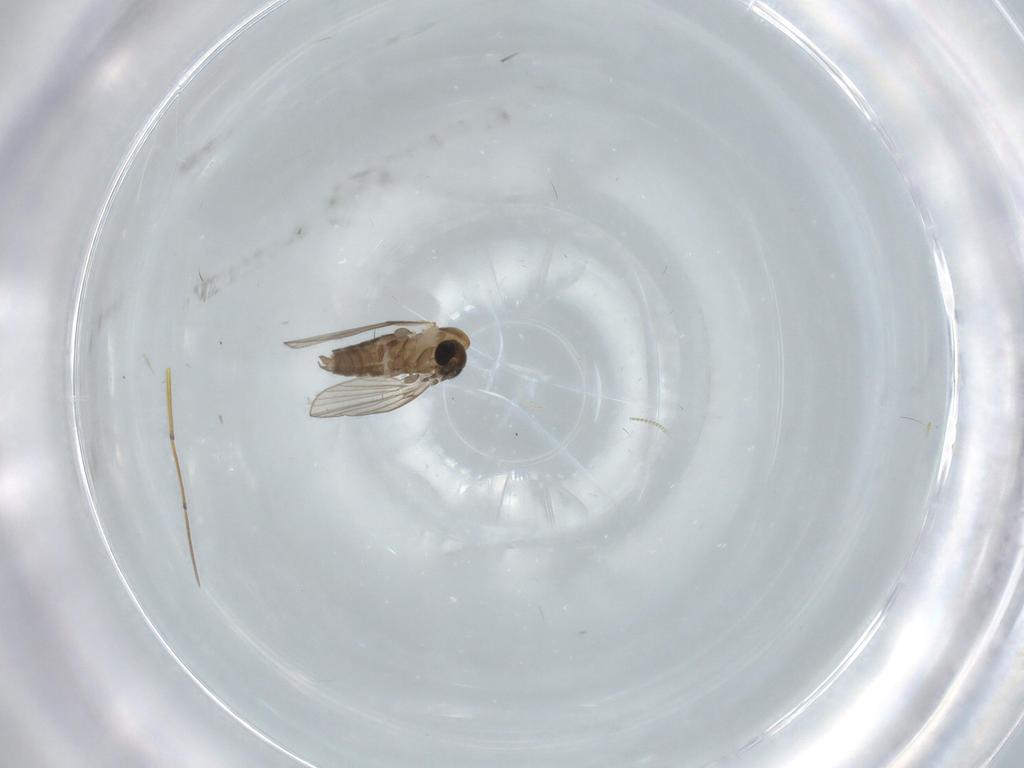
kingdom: Animalia
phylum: Arthropoda
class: Insecta
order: Diptera
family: Chironomidae
